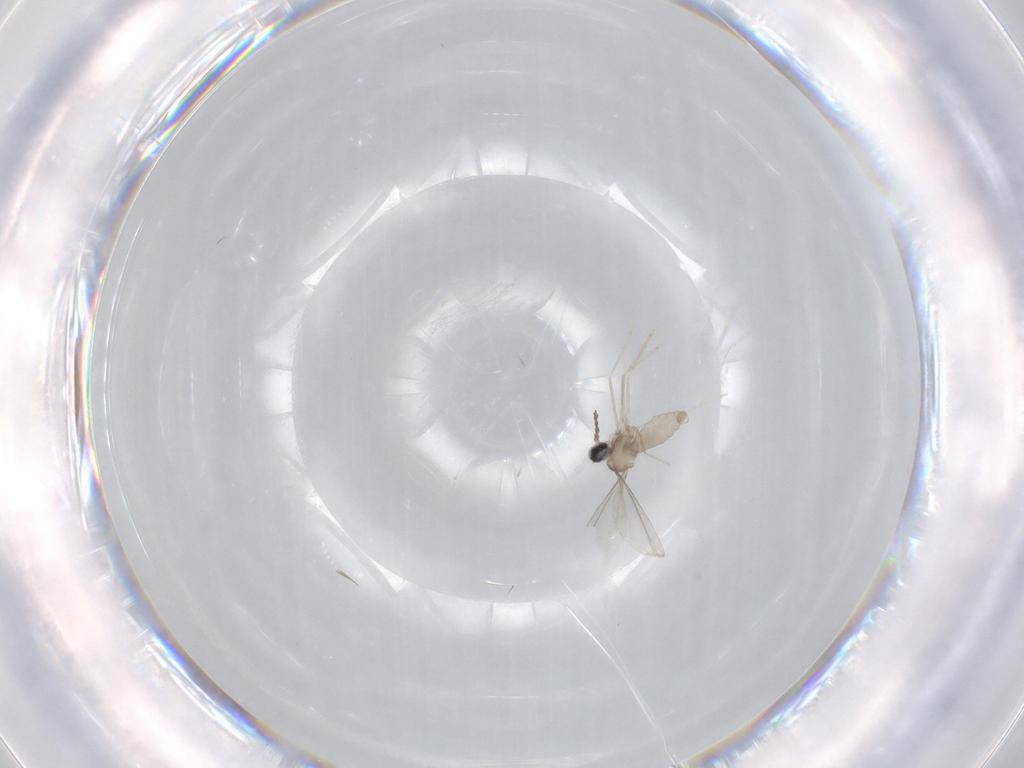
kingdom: Animalia
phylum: Arthropoda
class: Insecta
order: Diptera
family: Cecidomyiidae
